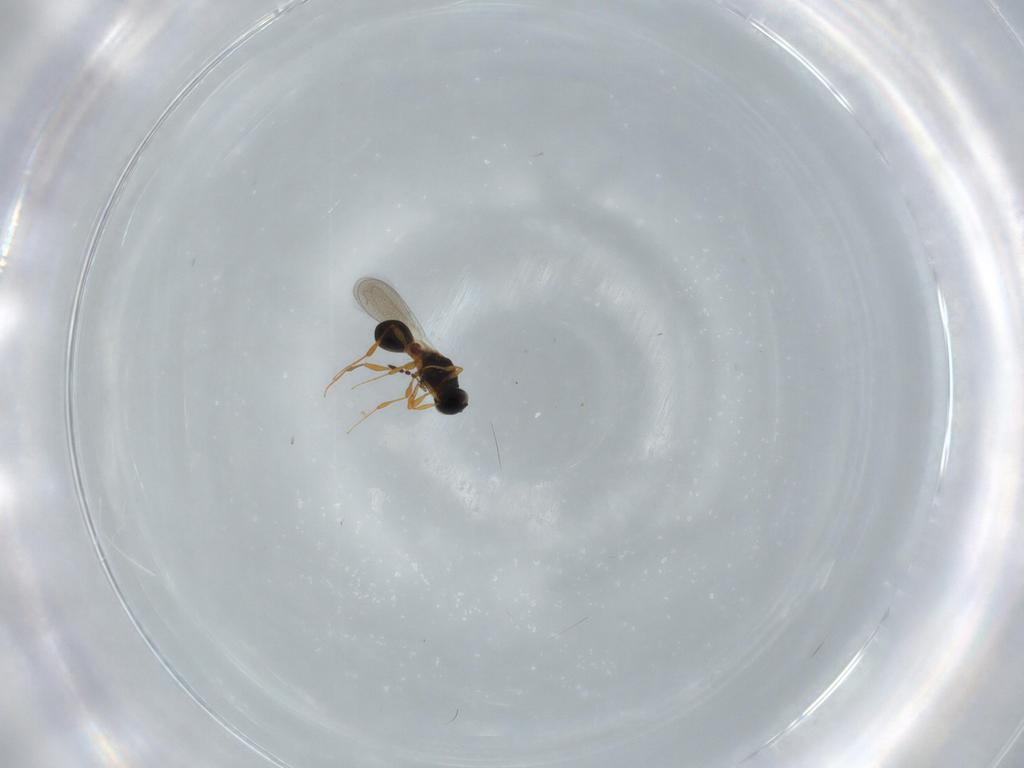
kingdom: Animalia
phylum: Arthropoda
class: Insecta
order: Hymenoptera
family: Platygastridae
